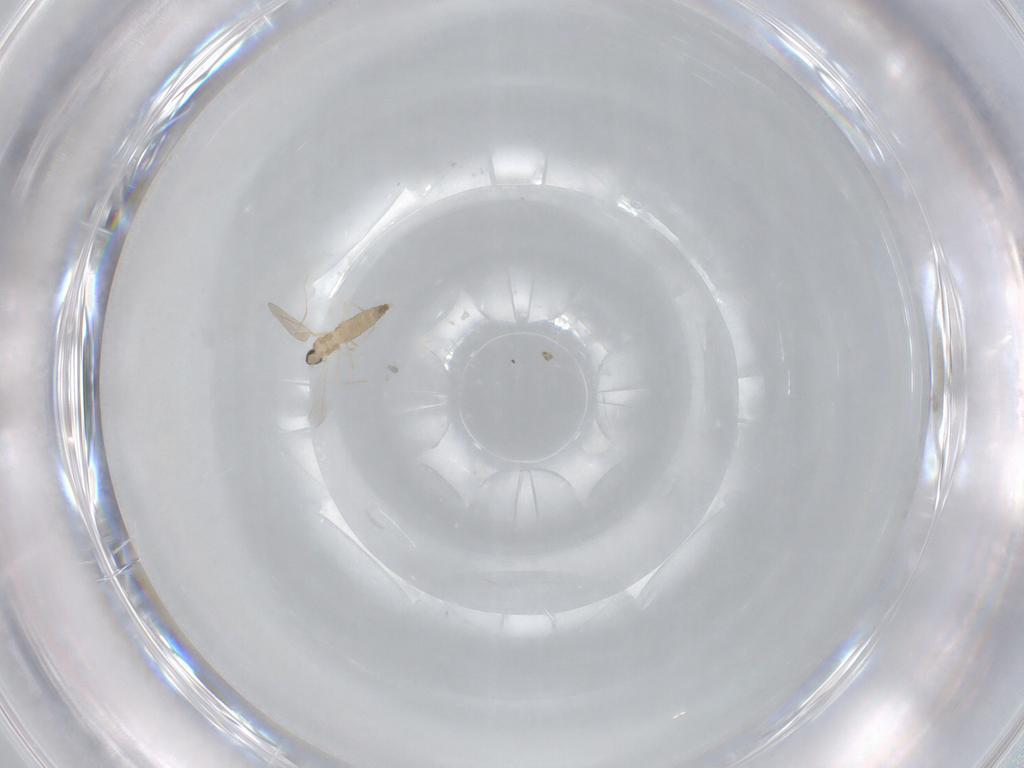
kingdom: Animalia
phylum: Arthropoda
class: Insecta
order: Diptera
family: Cecidomyiidae
